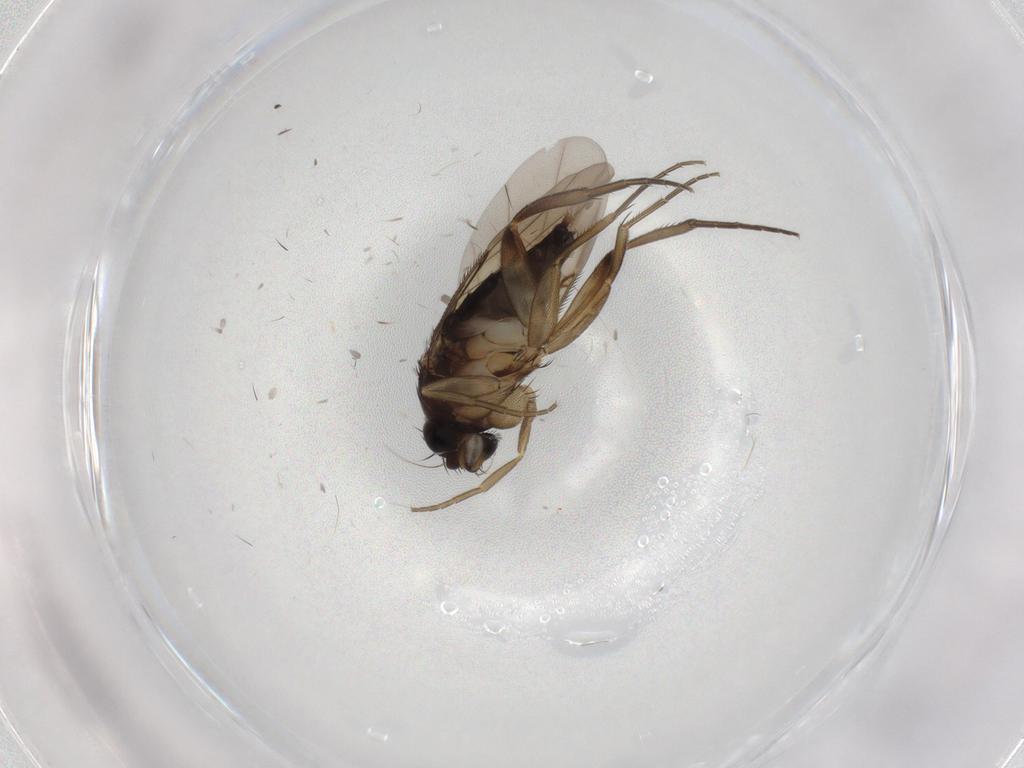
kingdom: Animalia
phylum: Arthropoda
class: Insecta
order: Diptera
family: Phoridae
